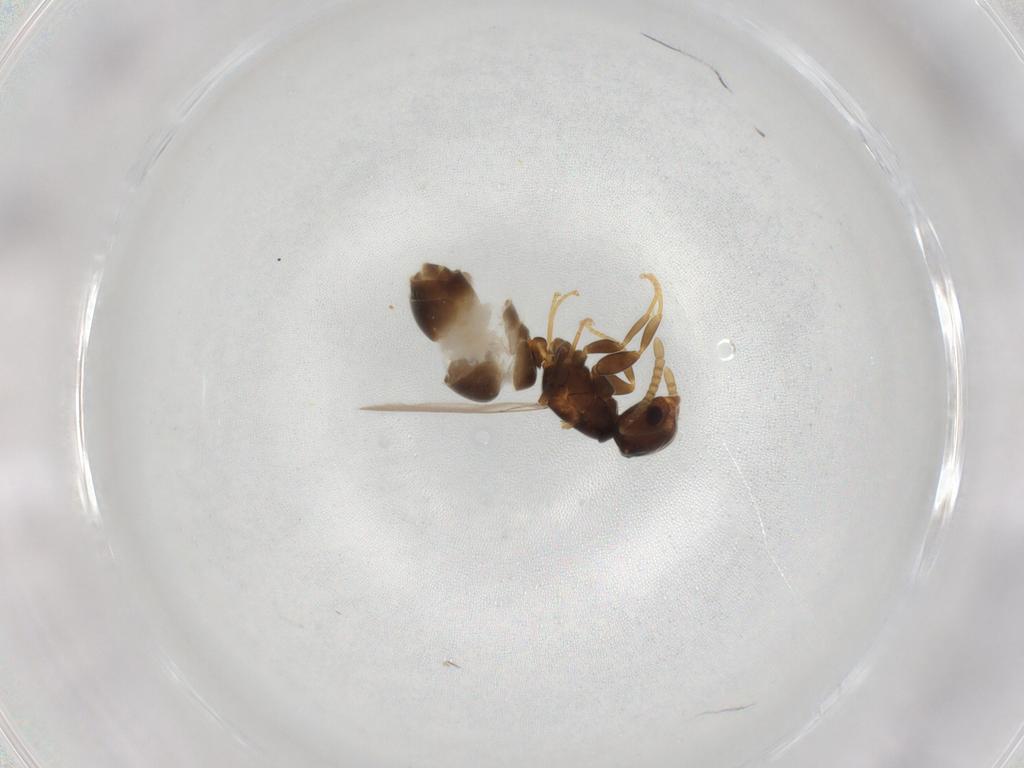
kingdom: Animalia
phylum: Arthropoda
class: Insecta
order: Hymenoptera
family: Formicidae
